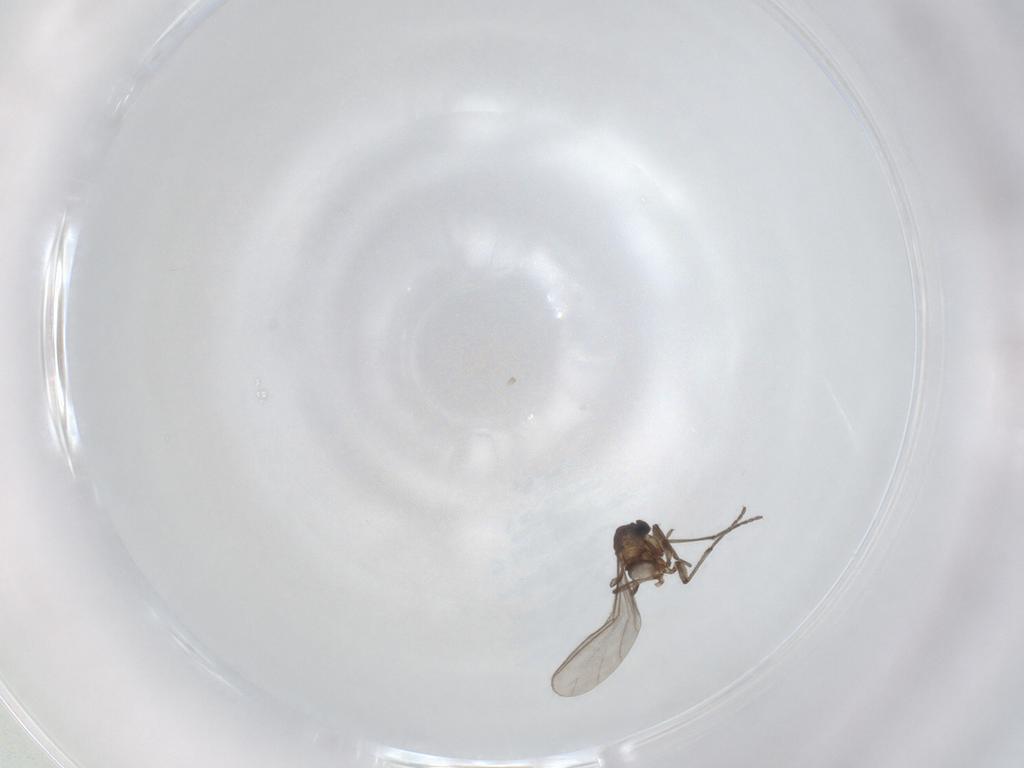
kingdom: Animalia
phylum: Arthropoda
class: Insecta
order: Diptera
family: Sciaridae
